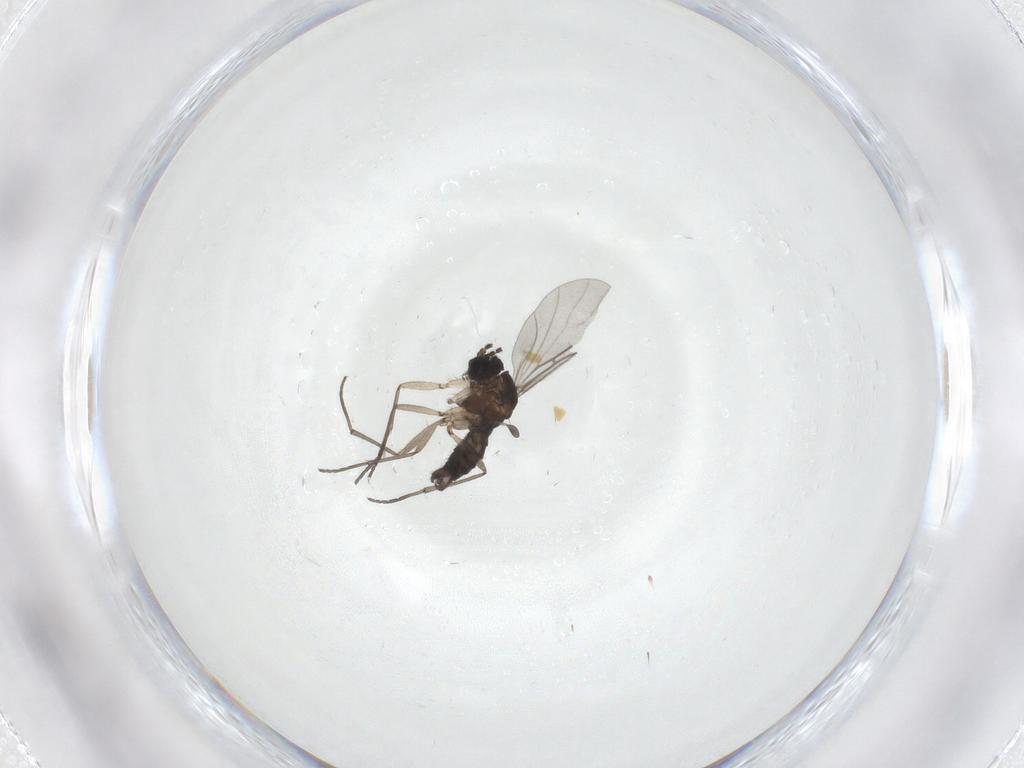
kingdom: Animalia
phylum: Arthropoda
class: Insecta
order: Diptera
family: Sciaridae
